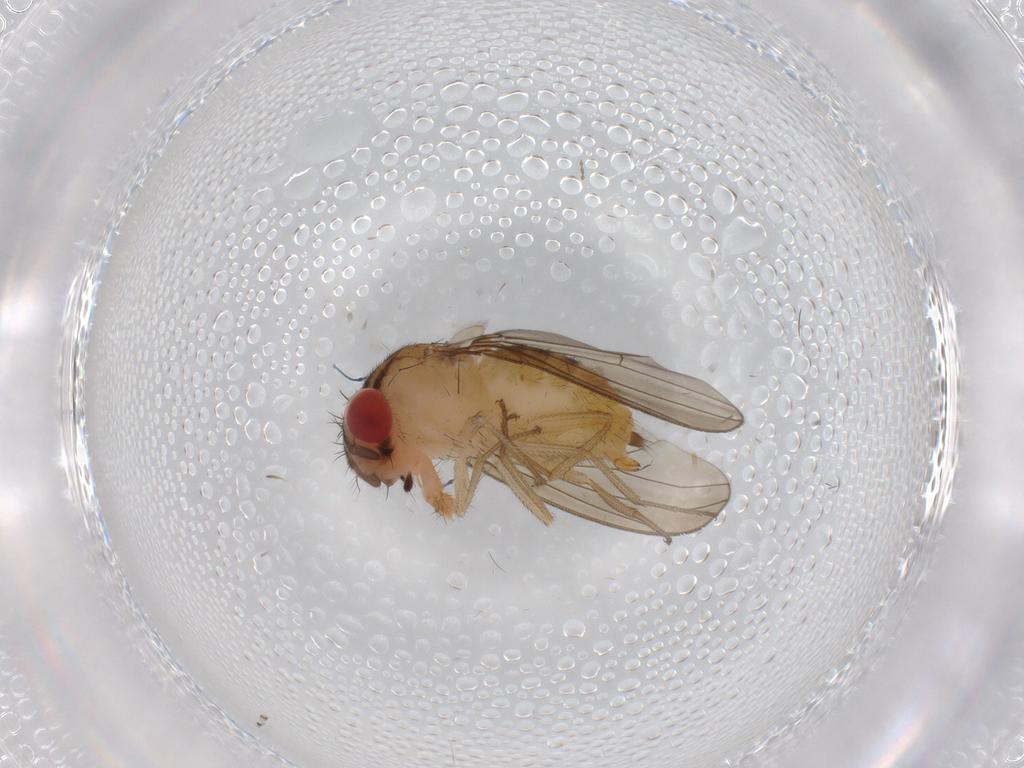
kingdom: Animalia
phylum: Arthropoda
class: Insecta
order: Diptera
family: Drosophilidae
